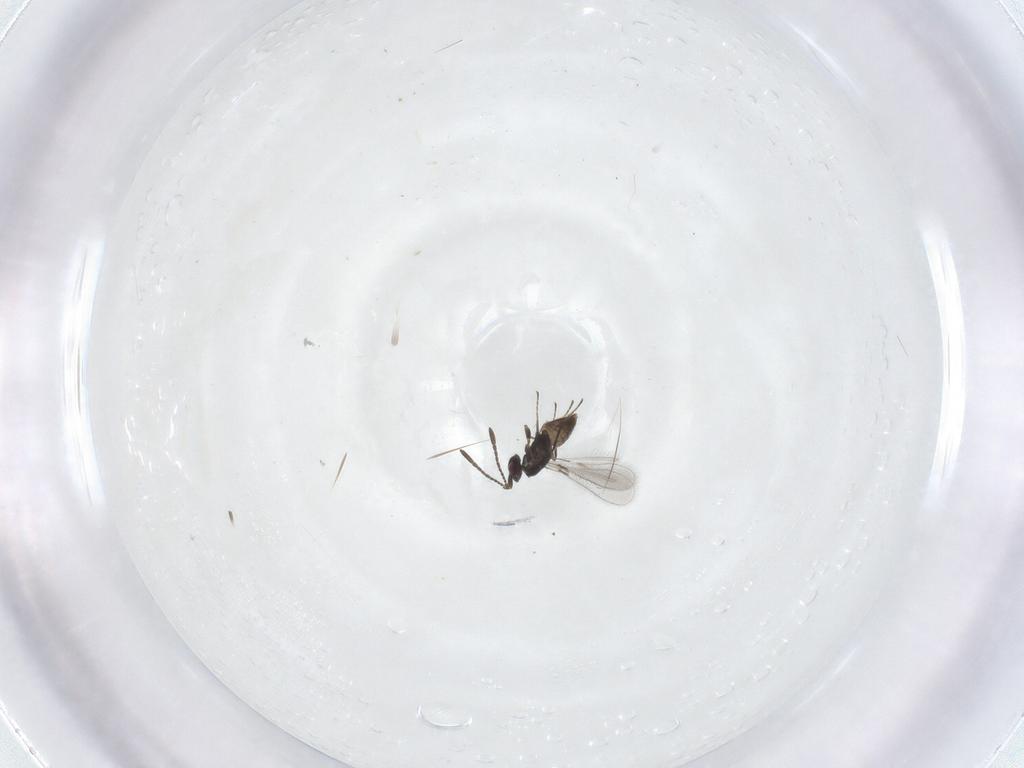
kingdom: Animalia
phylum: Arthropoda
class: Insecta
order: Hymenoptera
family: Mymaridae
